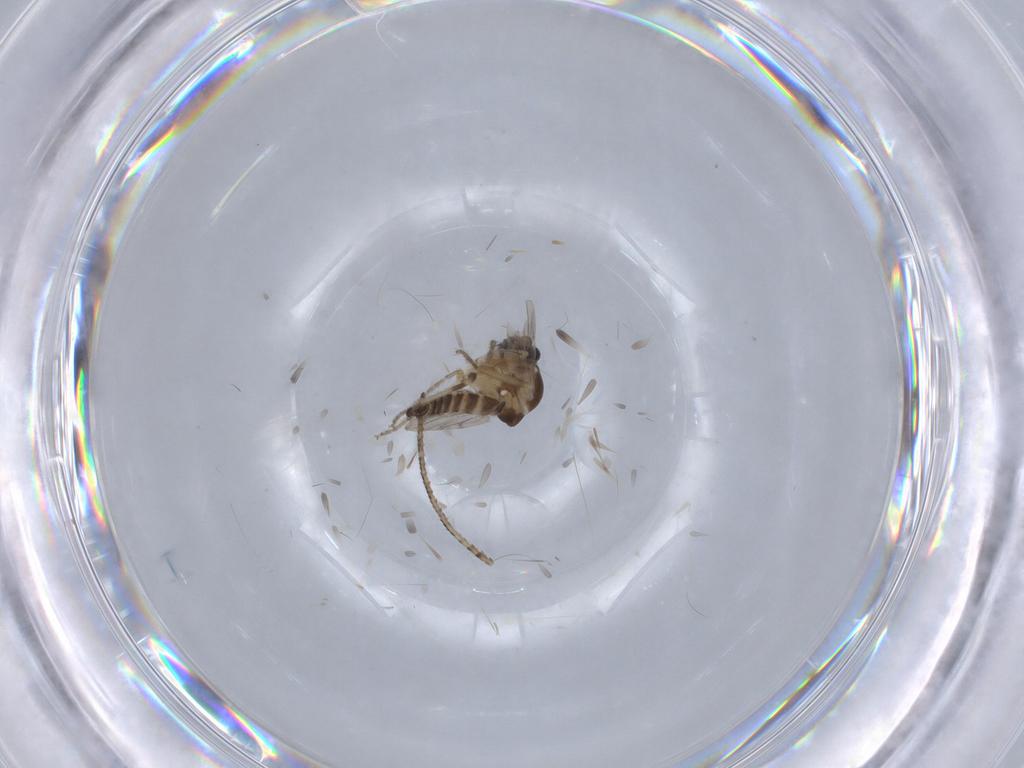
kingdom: Animalia
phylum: Arthropoda
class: Insecta
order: Diptera
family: Ceratopogonidae
